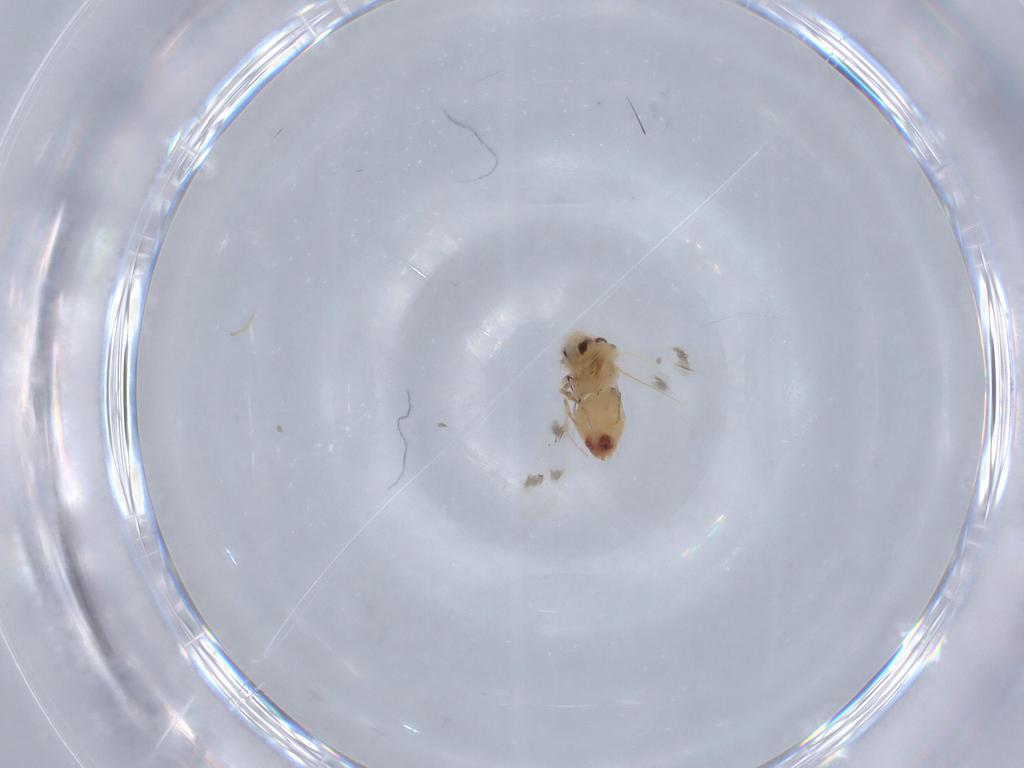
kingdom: Animalia
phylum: Arthropoda
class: Insecta
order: Hemiptera
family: Aleyrodidae
